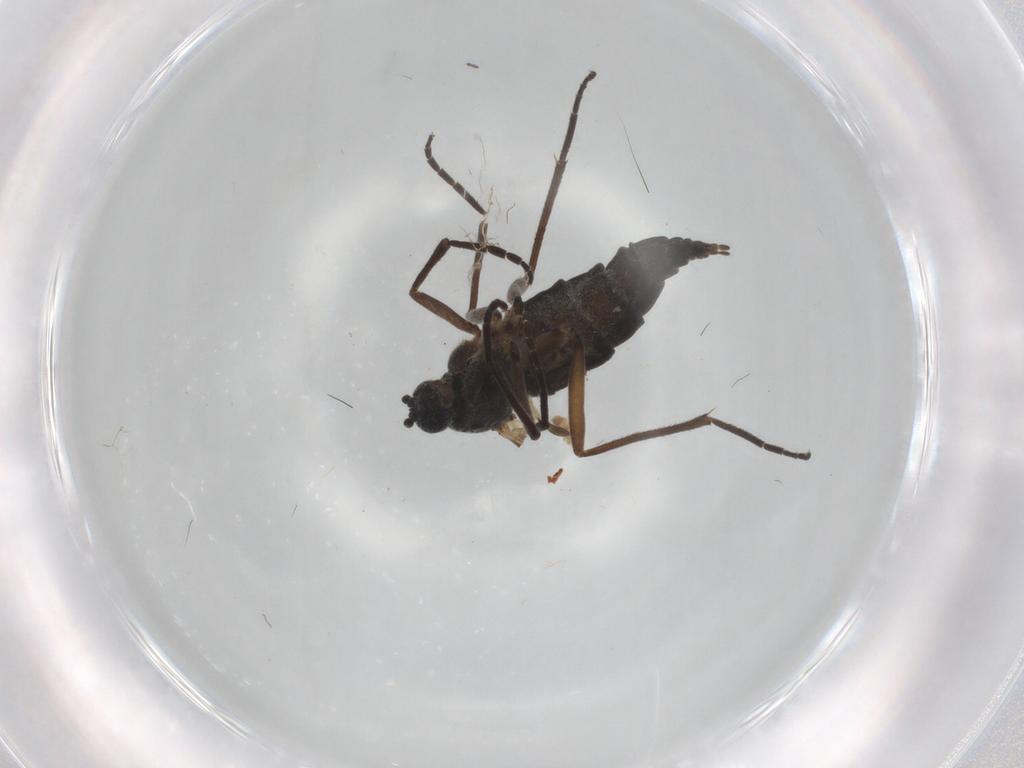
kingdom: Animalia
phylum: Arthropoda
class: Insecta
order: Diptera
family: Sciaridae
